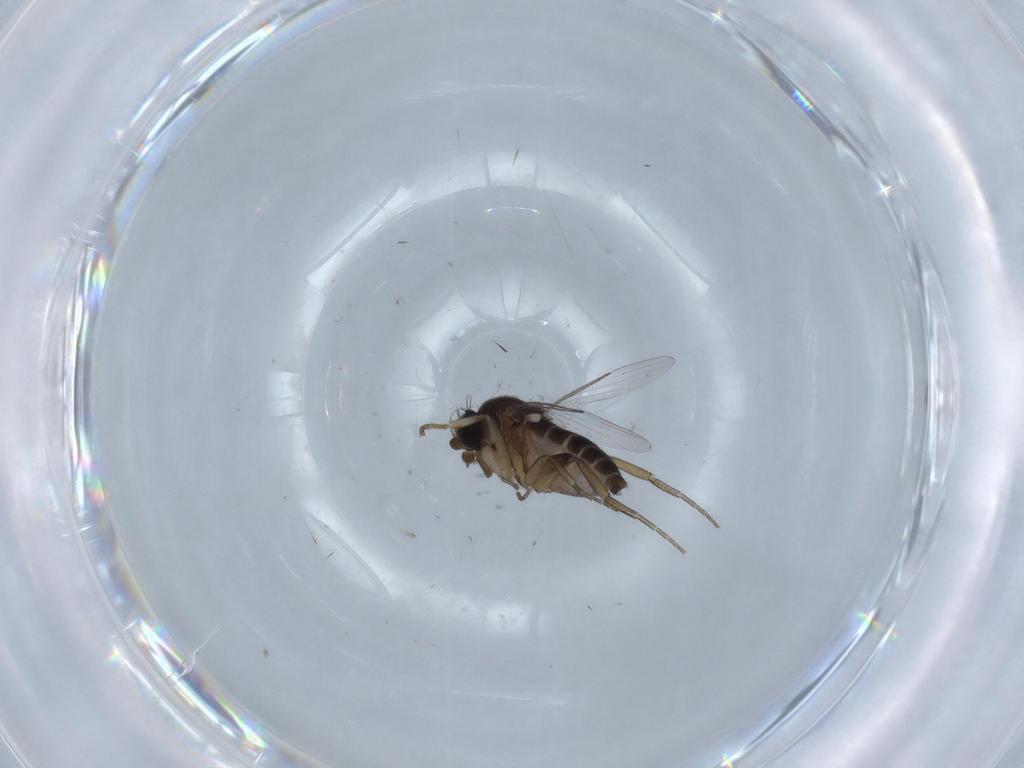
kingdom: Animalia
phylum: Arthropoda
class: Insecta
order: Diptera
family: Phoridae
